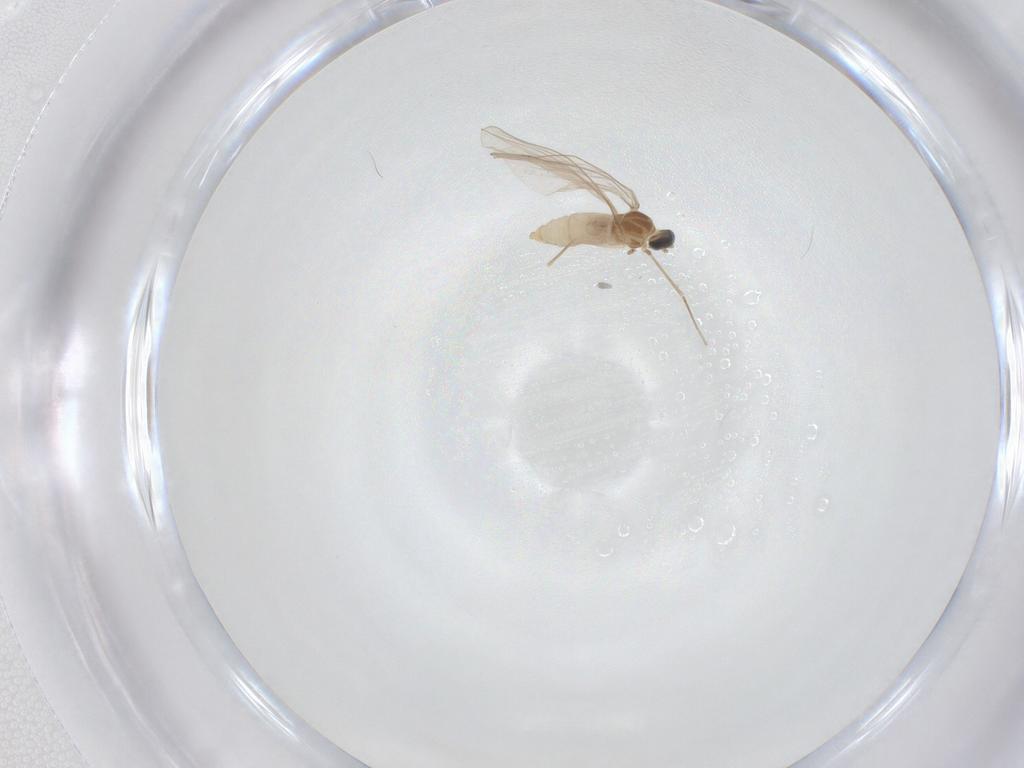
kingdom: Animalia
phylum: Arthropoda
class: Insecta
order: Diptera
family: Cecidomyiidae
